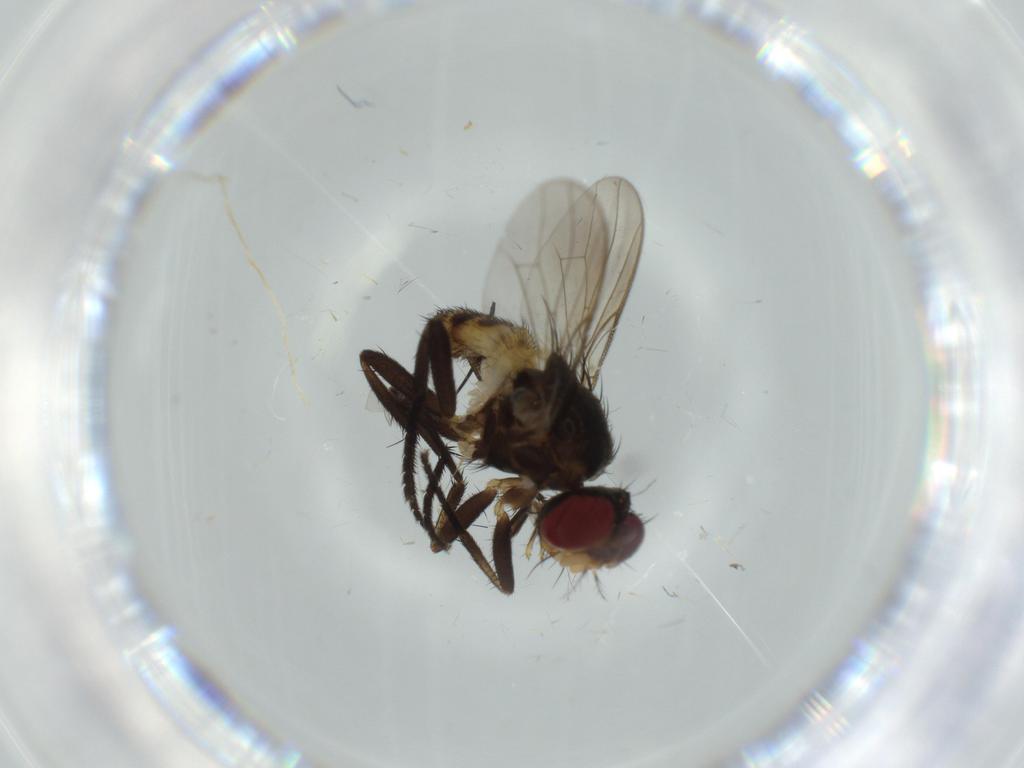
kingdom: Animalia
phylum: Arthropoda
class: Insecta
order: Diptera
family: Anthomyiidae
